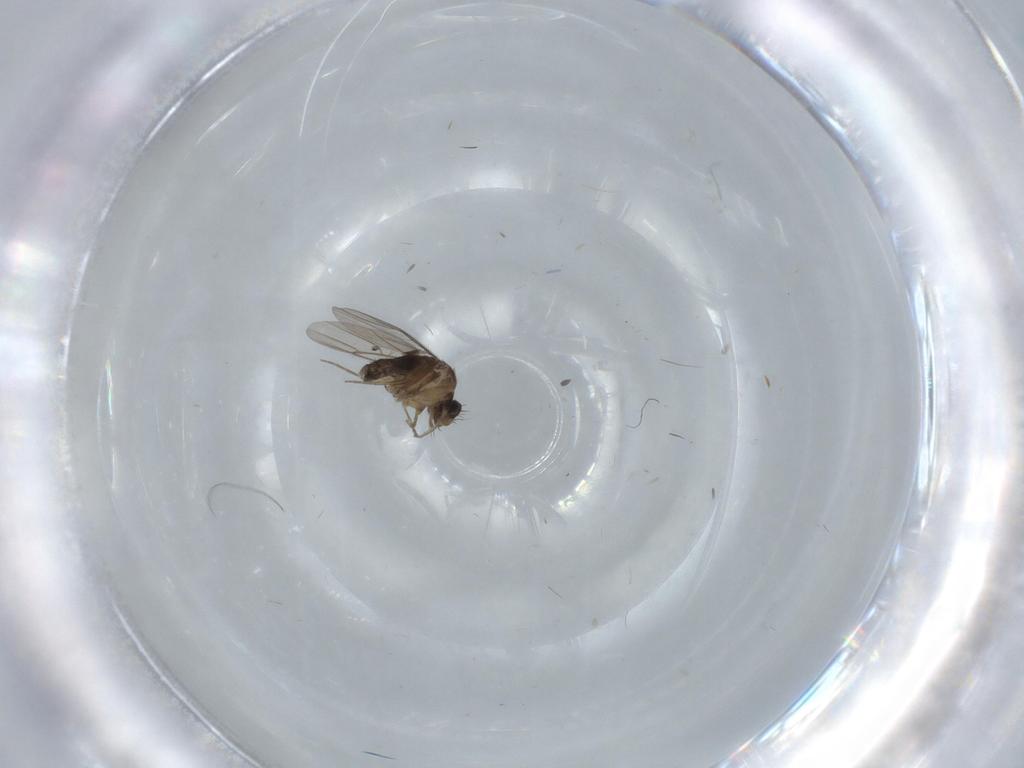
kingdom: Animalia
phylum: Arthropoda
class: Insecta
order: Diptera
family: Phoridae
